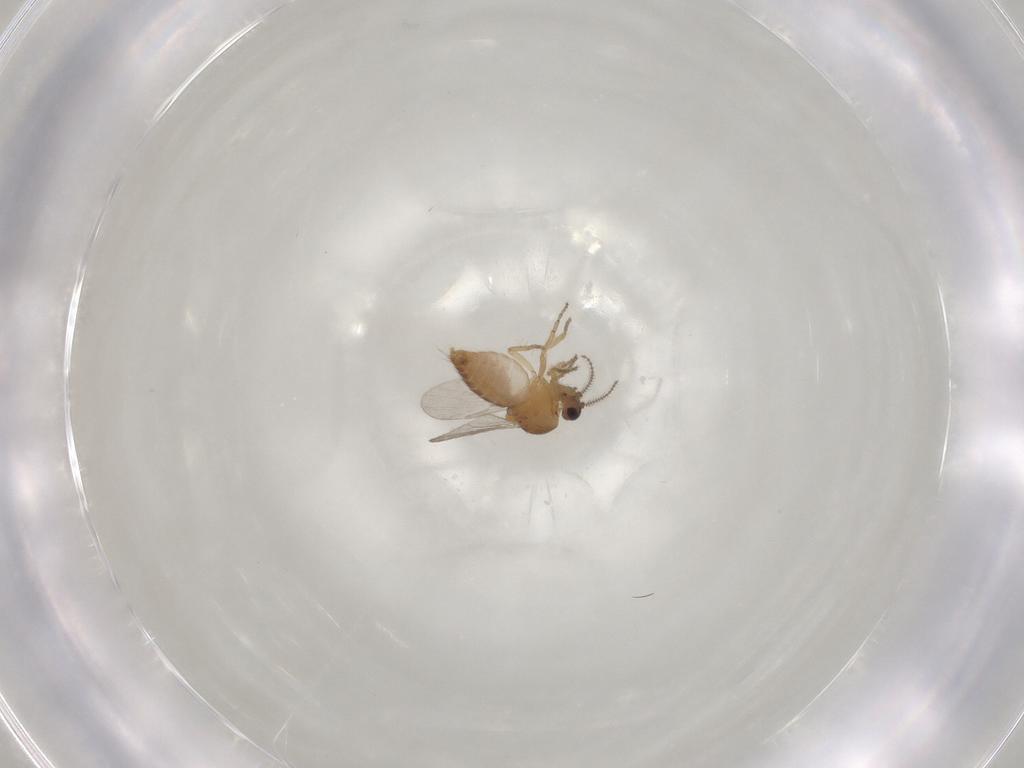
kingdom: Animalia
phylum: Arthropoda
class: Insecta
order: Diptera
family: Ceratopogonidae
